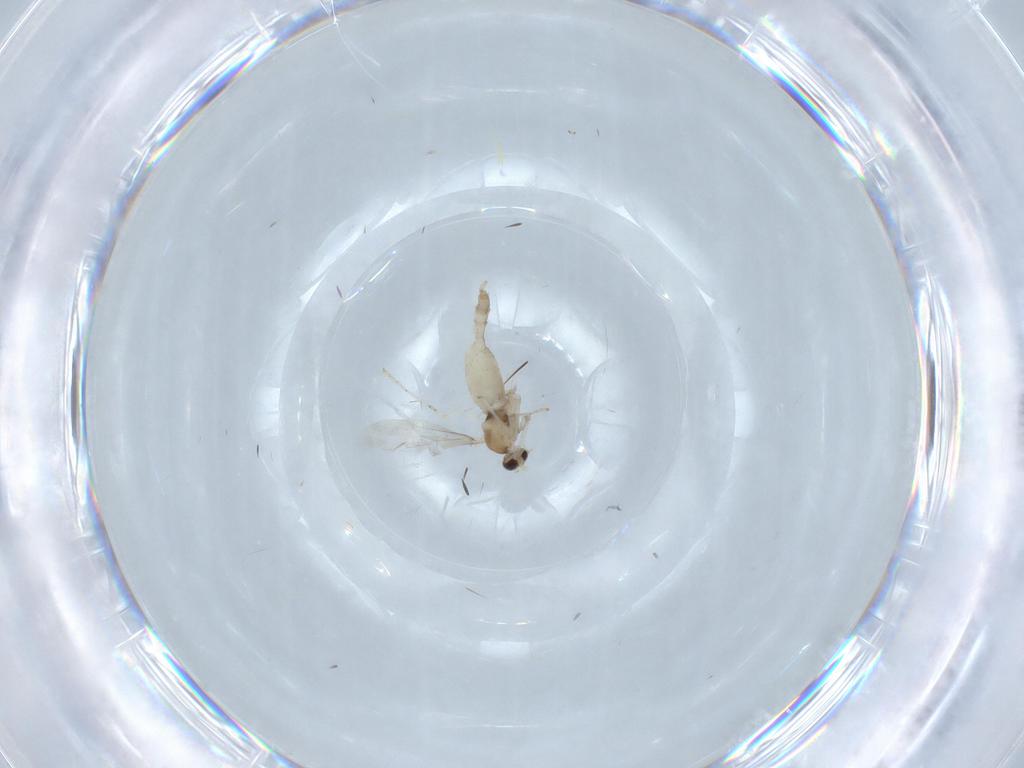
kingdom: Animalia
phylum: Arthropoda
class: Insecta
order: Diptera
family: Cecidomyiidae
